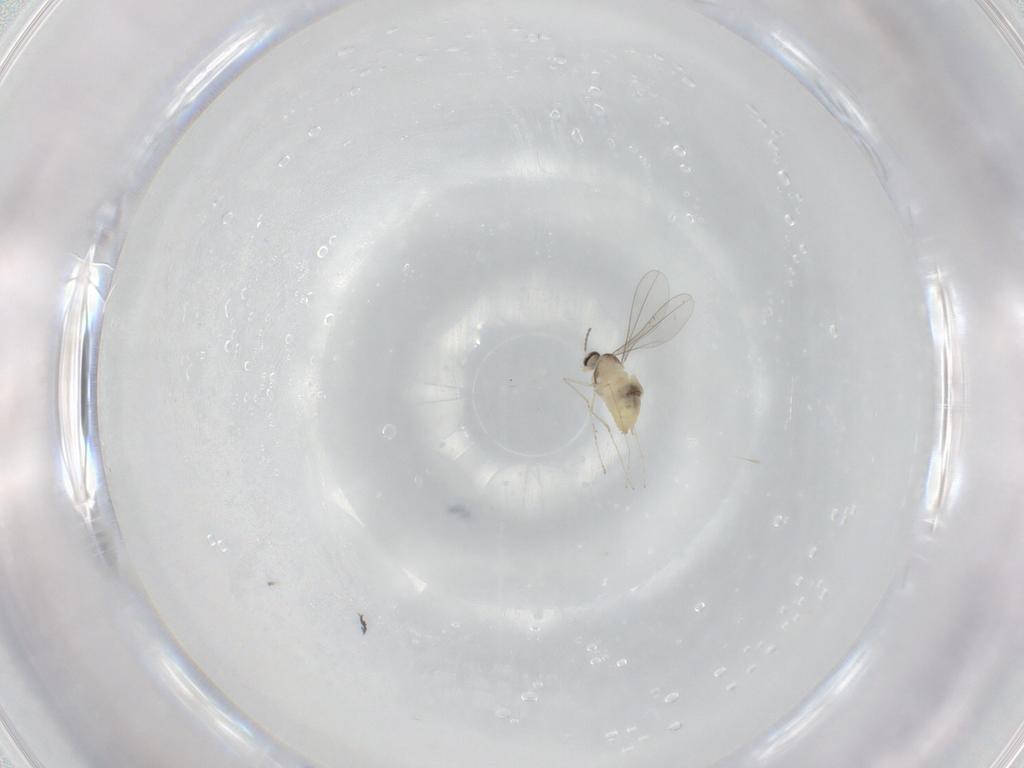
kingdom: Animalia
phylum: Arthropoda
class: Insecta
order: Diptera
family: Cecidomyiidae
